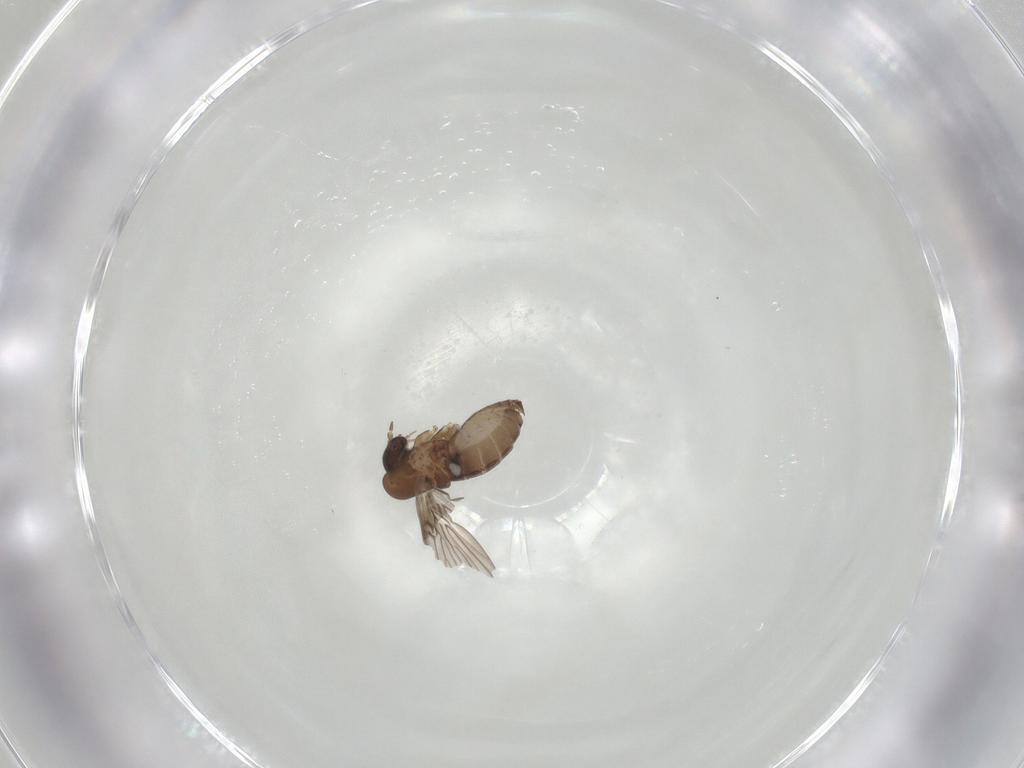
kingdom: Animalia
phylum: Arthropoda
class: Insecta
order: Diptera
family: Psychodidae
